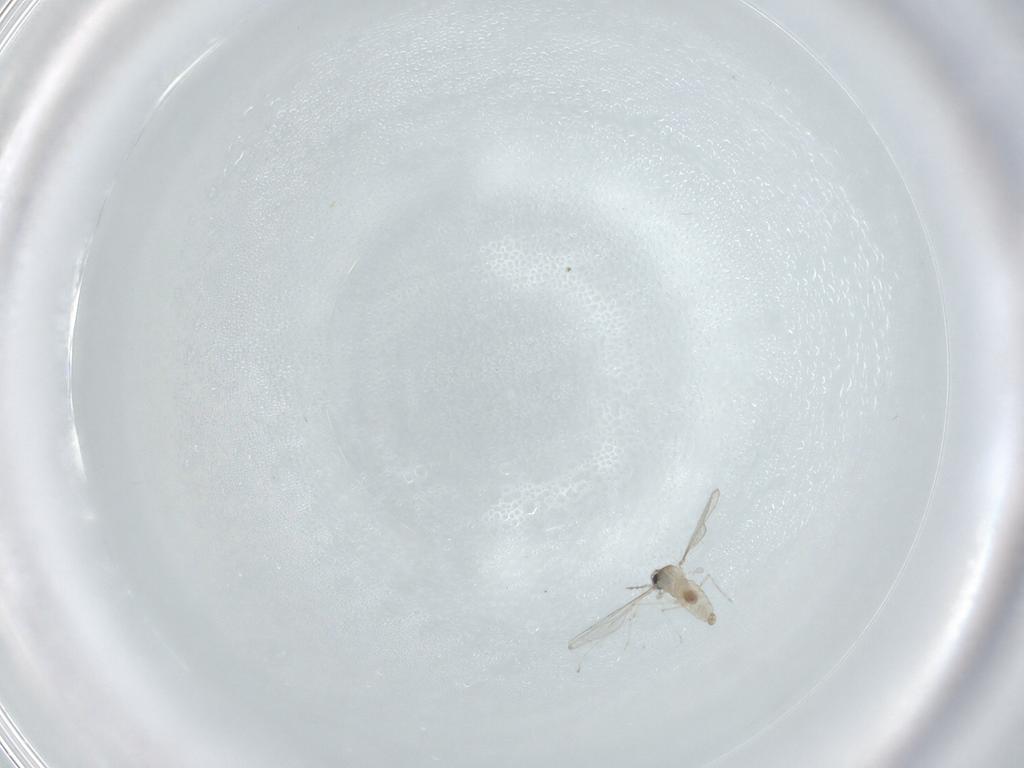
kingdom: Animalia
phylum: Arthropoda
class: Insecta
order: Diptera
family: Cecidomyiidae
